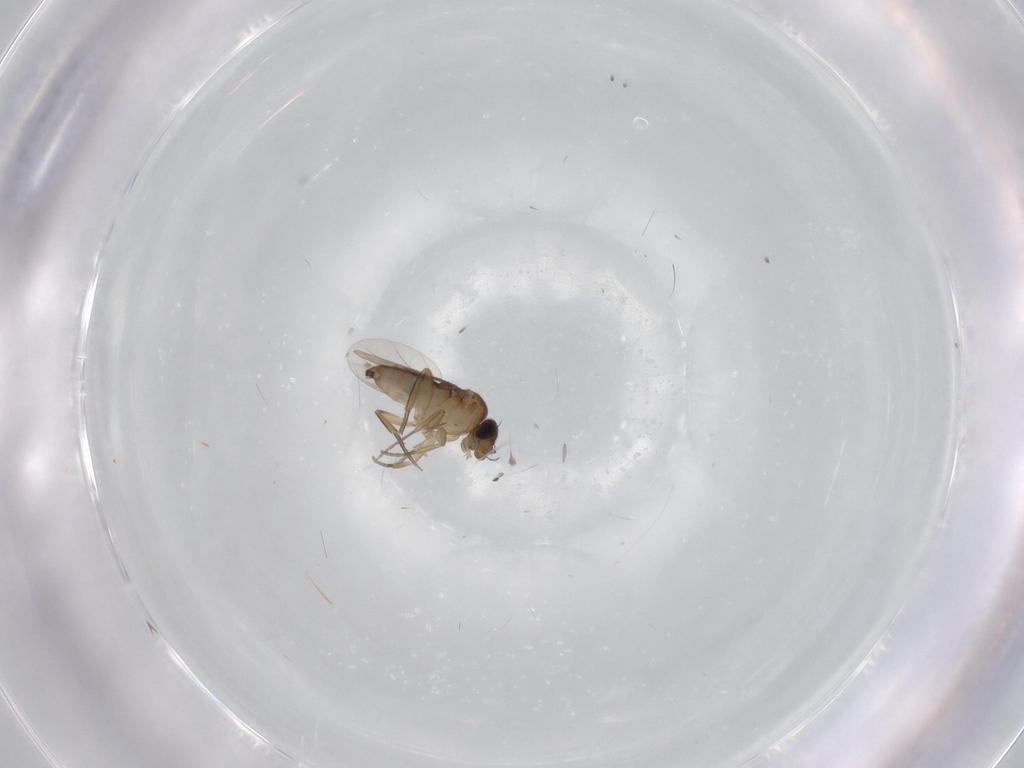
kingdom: Animalia
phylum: Arthropoda
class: Insecta
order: Diptera
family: Phoridae
